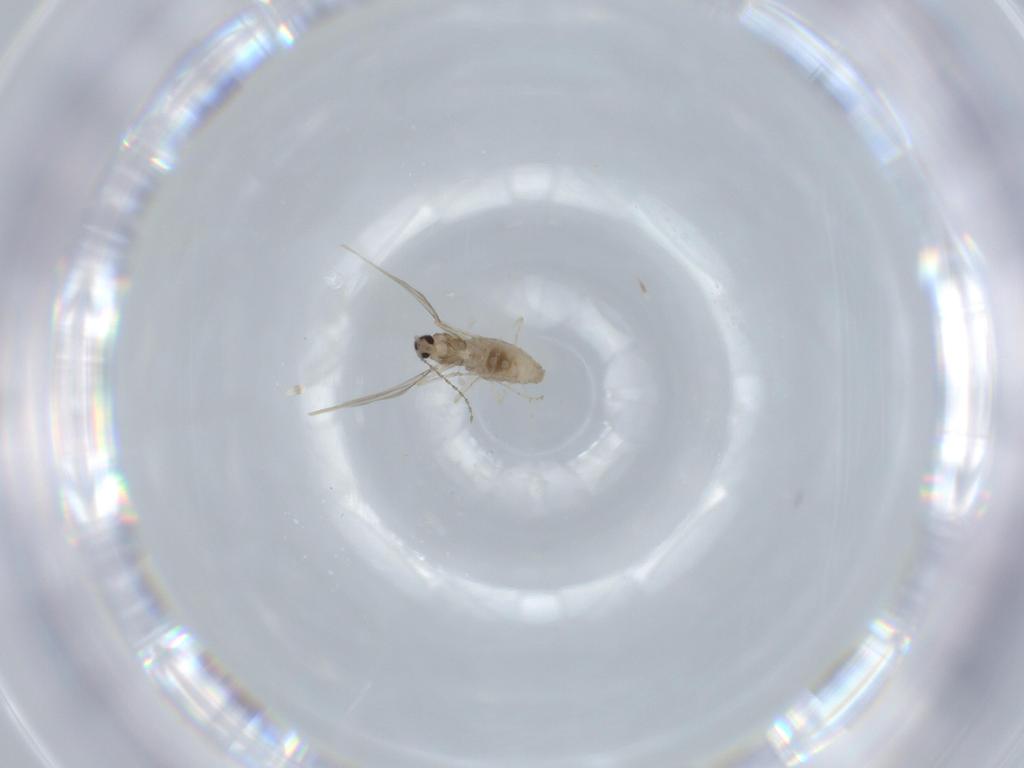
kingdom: Animalia
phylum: Arthropoda
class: Insecta
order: Diptera
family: Cecidomyiidae
